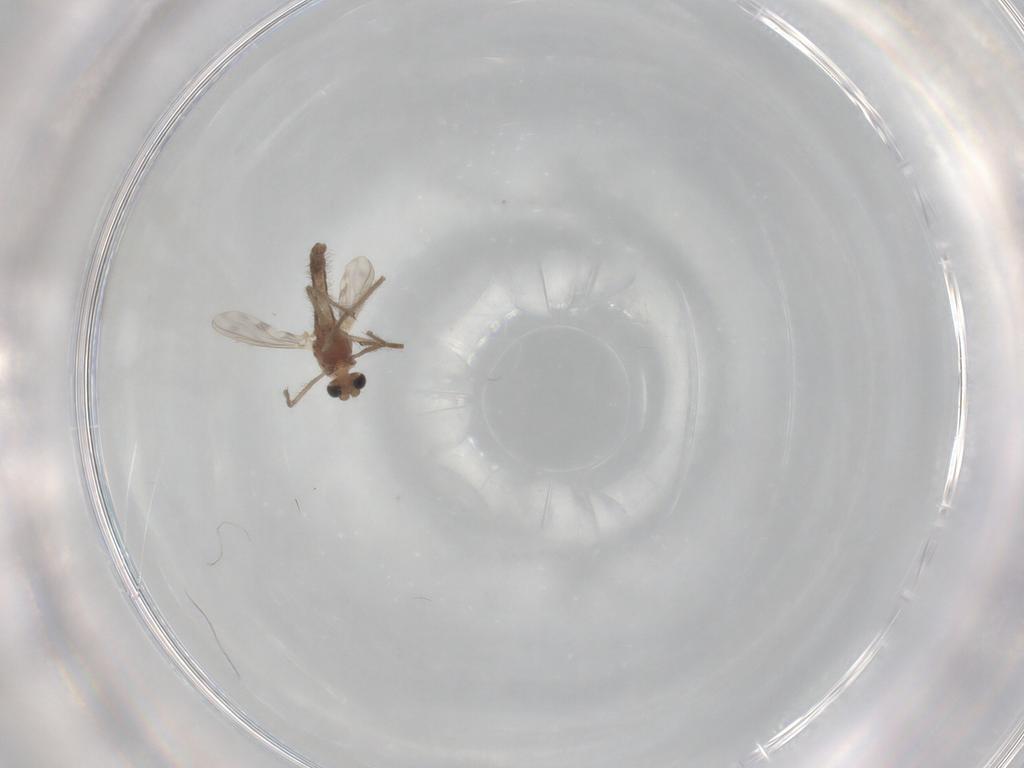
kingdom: Animalia
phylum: Arthropoda
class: Insecta
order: Diptera
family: Chironomidae
